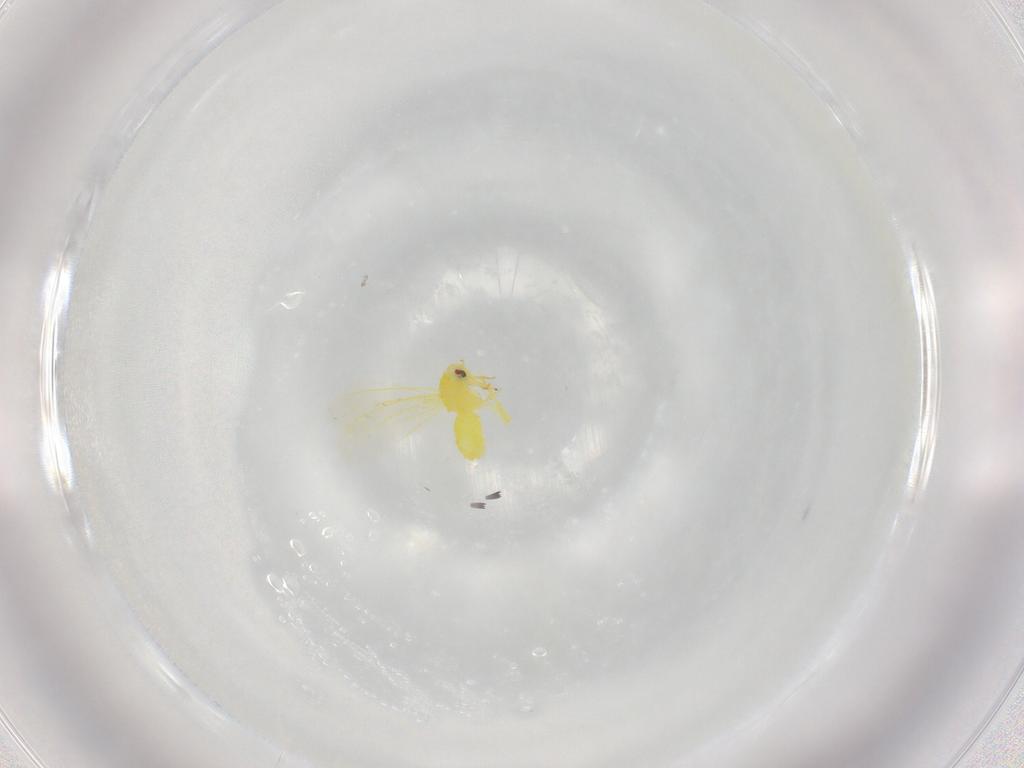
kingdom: Animalia
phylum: Arthropoda
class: Insecta
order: Hemiptera
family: Aleyrodidae
